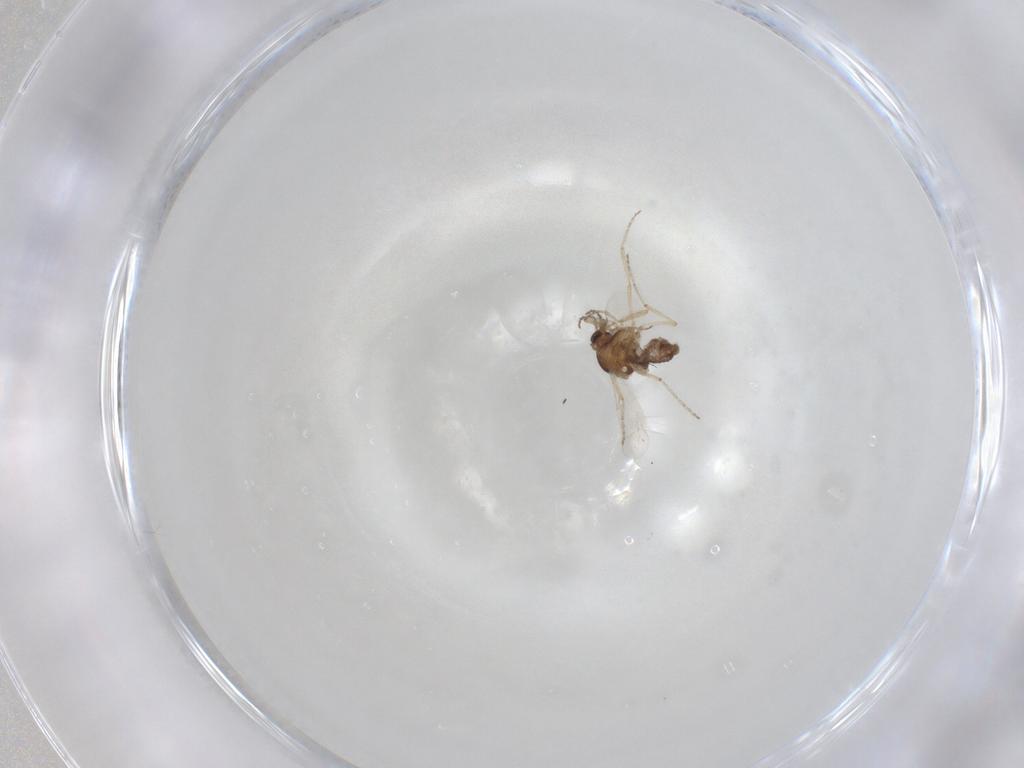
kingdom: Animalia
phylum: Arthropoda
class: Insecta
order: Diptera
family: Ceratopogonidae
